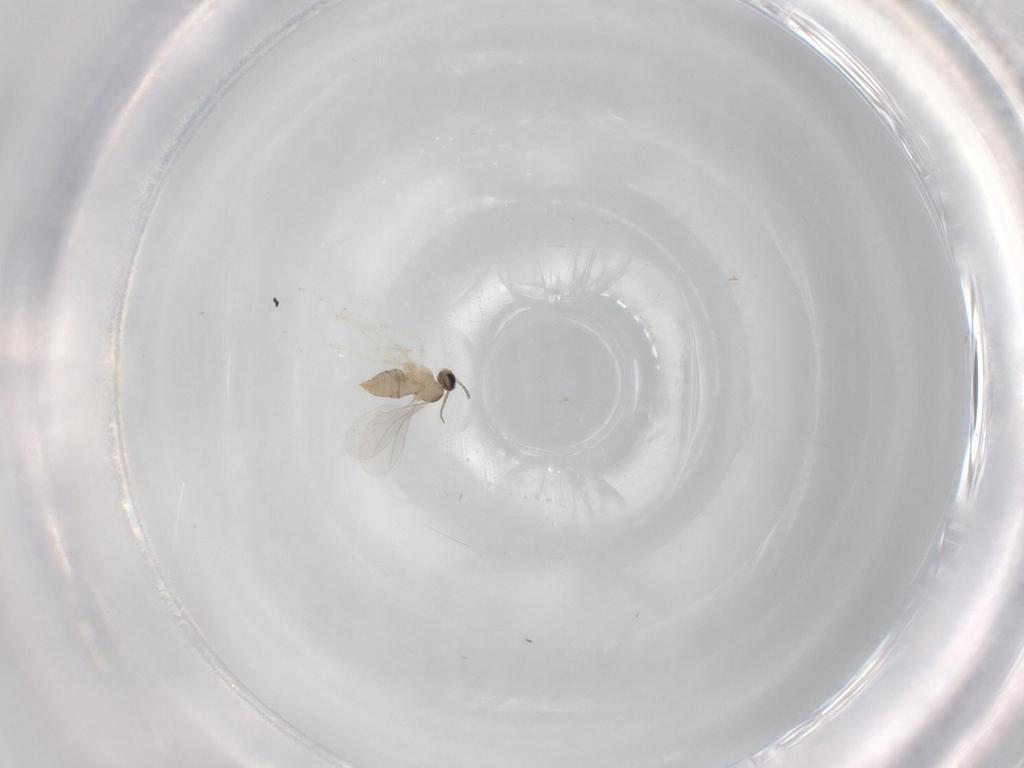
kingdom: Animalia
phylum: Arthropoda
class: Insecta
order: Diptera
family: Cecidomyiidae
